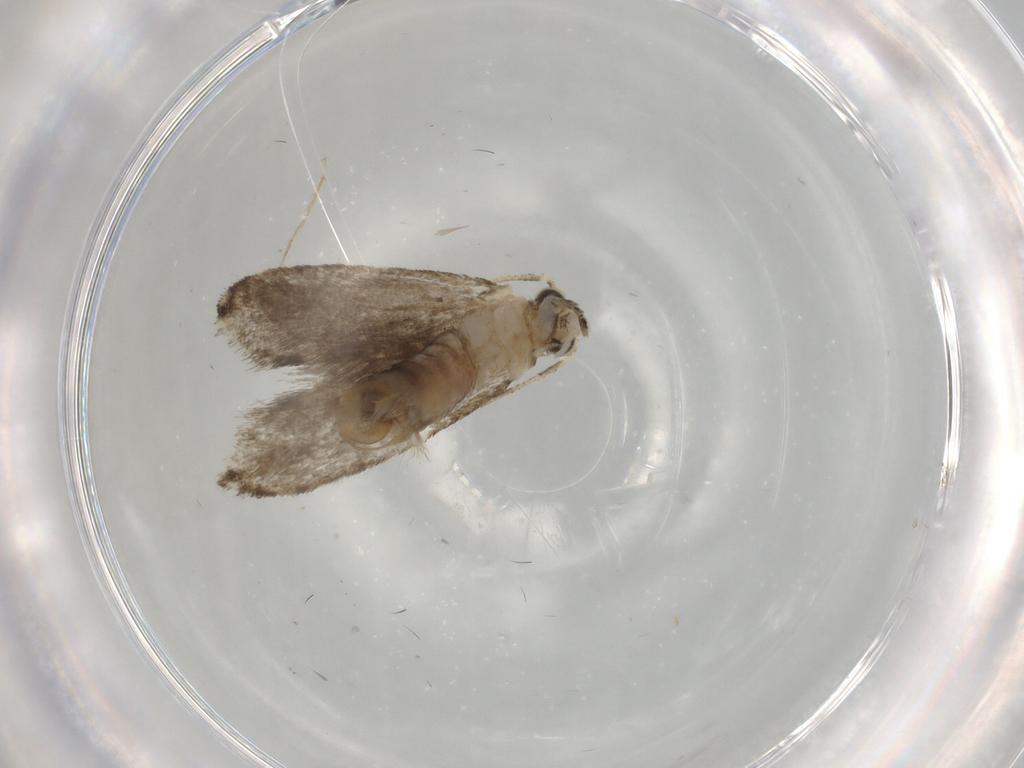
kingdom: Animalia
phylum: Arthropoda
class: Insecta
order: Lepidoptera
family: Tineidae
